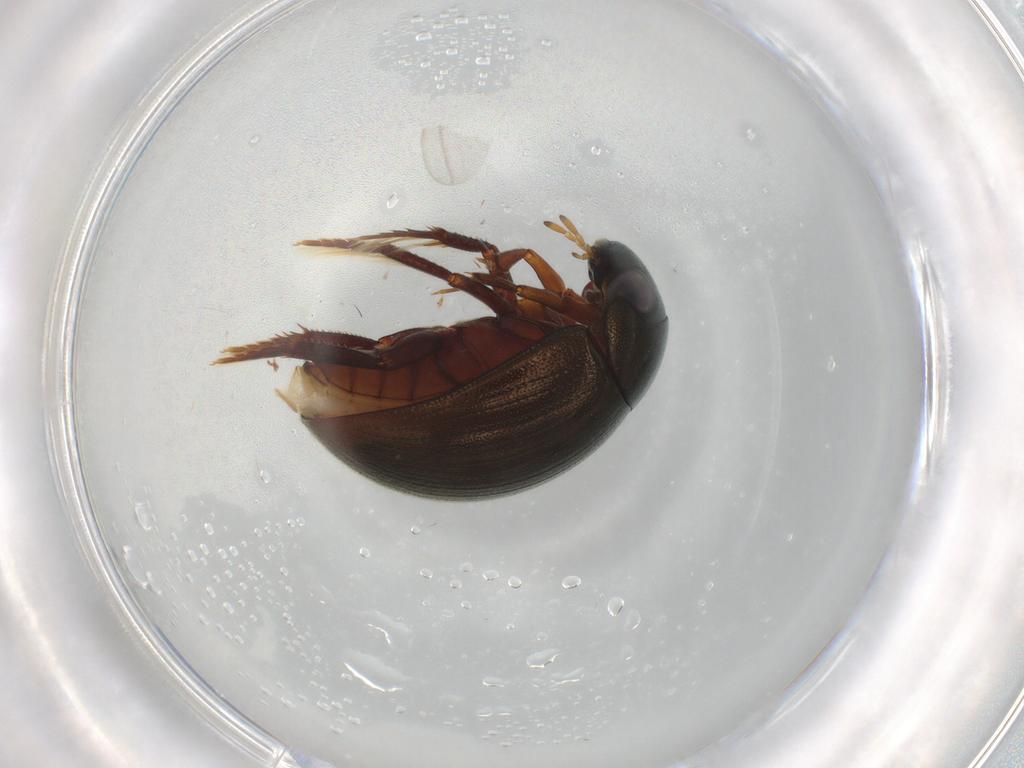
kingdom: Animalia
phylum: Arthropoda
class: Insecta
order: Coleoptera
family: Hydrophilidae
